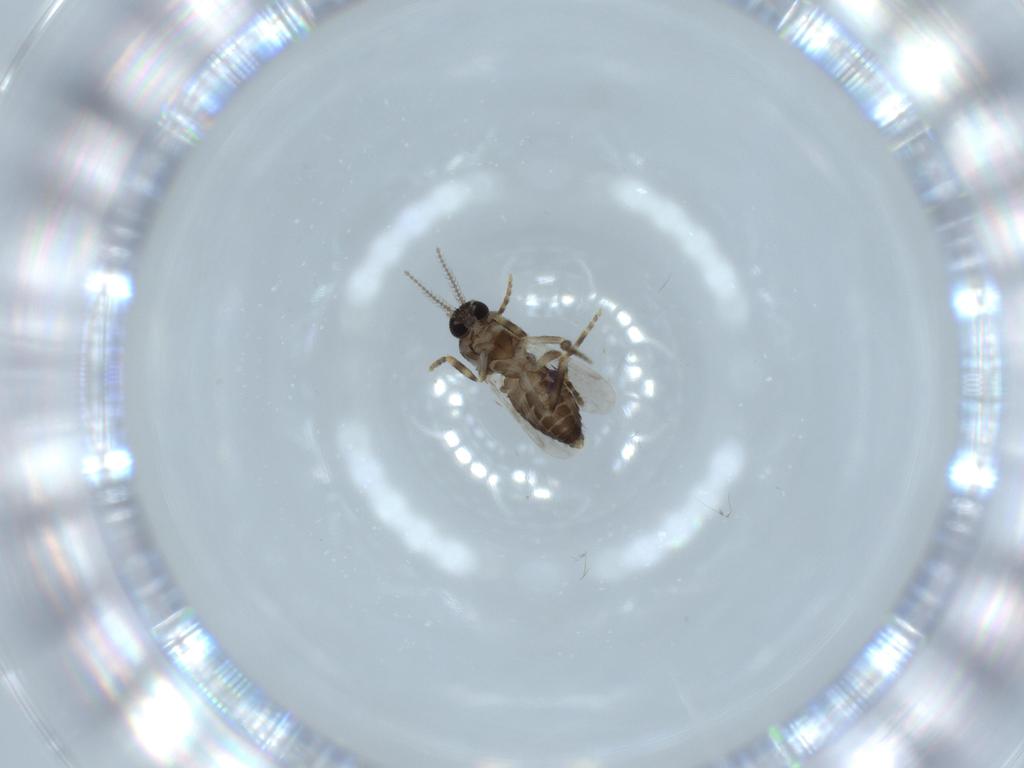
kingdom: Animalia
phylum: Arthropoda
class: Insecta
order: Diptera
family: Ceratopogonidae
